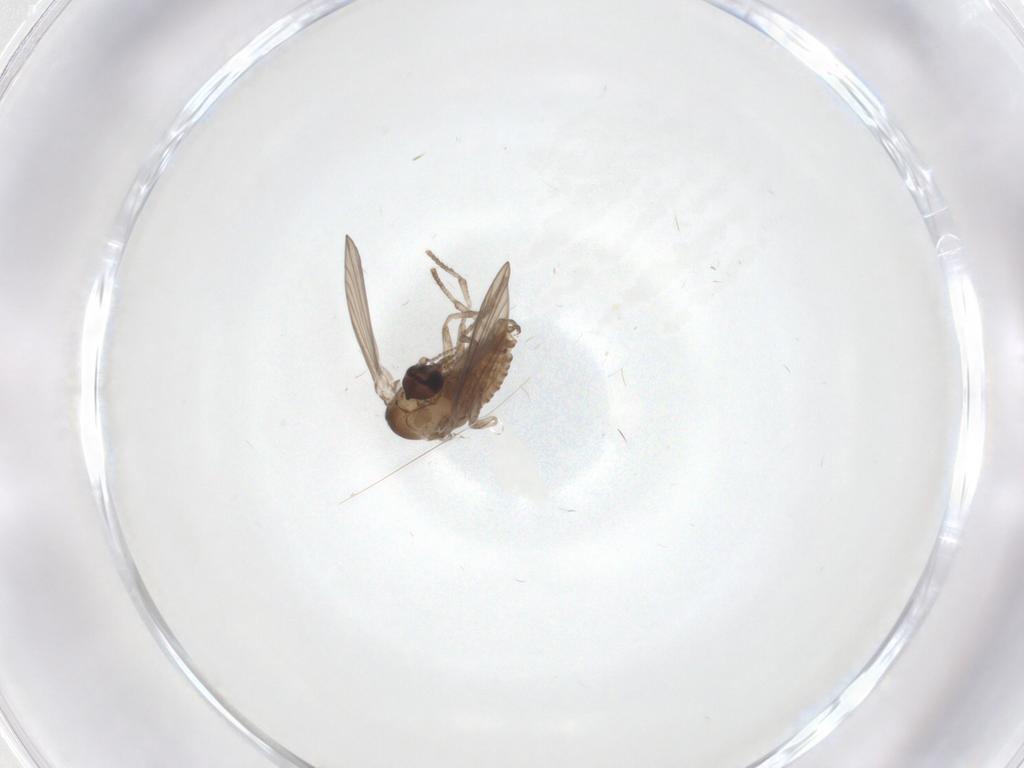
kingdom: Animalia
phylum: Arthropoda
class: Insecta
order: Diptera
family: Psychodidae
